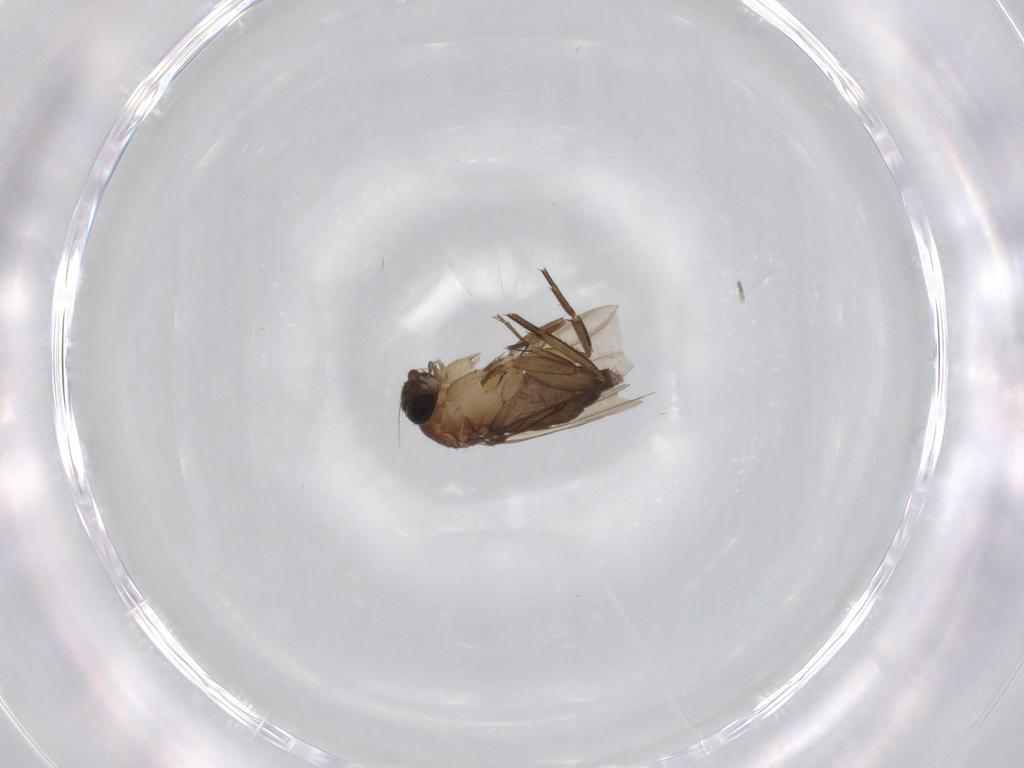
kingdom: Animalia
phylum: Arthropoda
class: Insecta
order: Diptera
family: Phoridae
